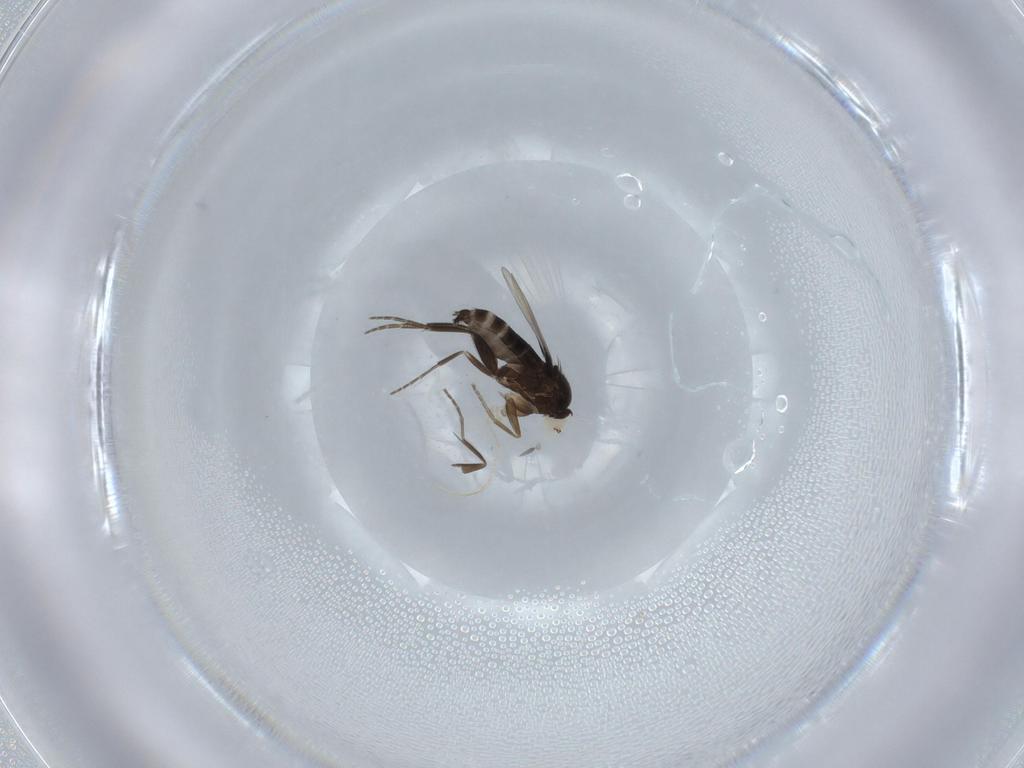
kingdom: Animalia
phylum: Arthropoda
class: Insecta
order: Diptera
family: Phoridae
